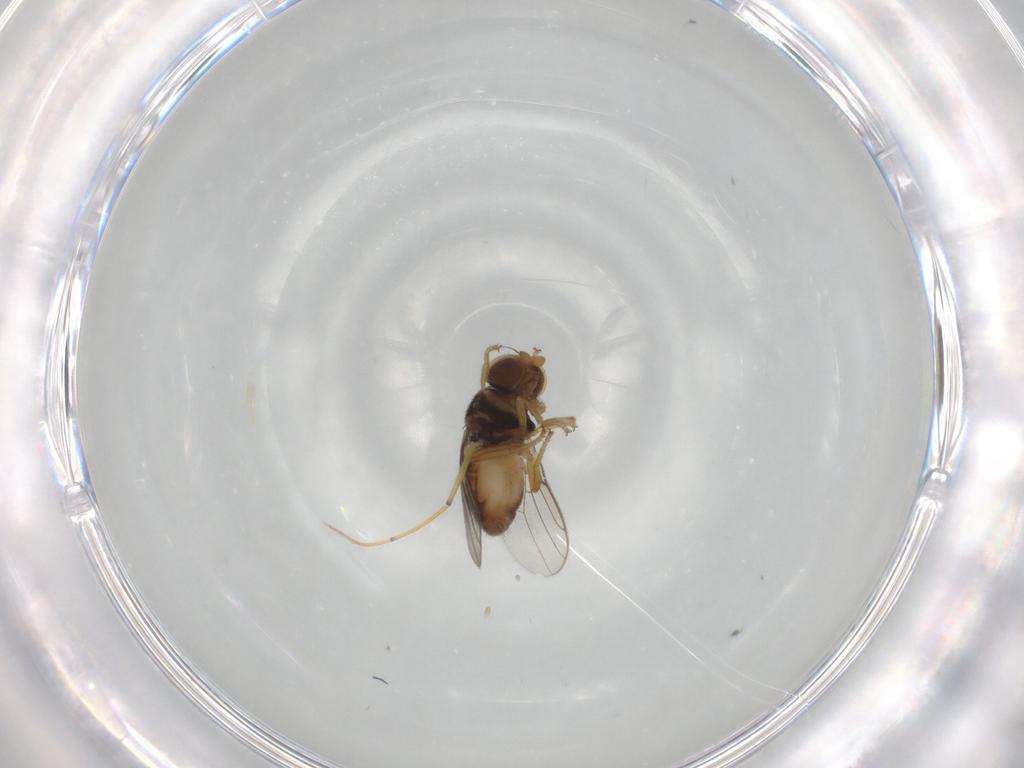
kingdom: Animalia
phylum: Arthropoda
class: Insecta
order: Diptera
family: Chloropidae
